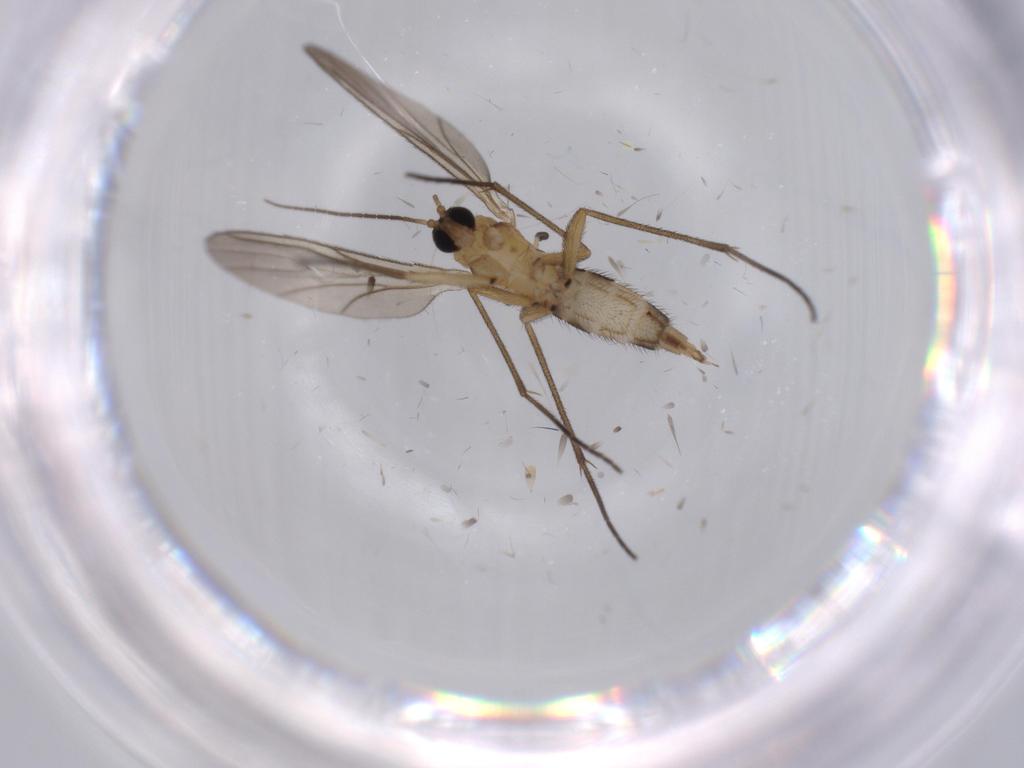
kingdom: Animalia
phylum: Arthropoda
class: Insecta
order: Diptera
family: Sciaridae
